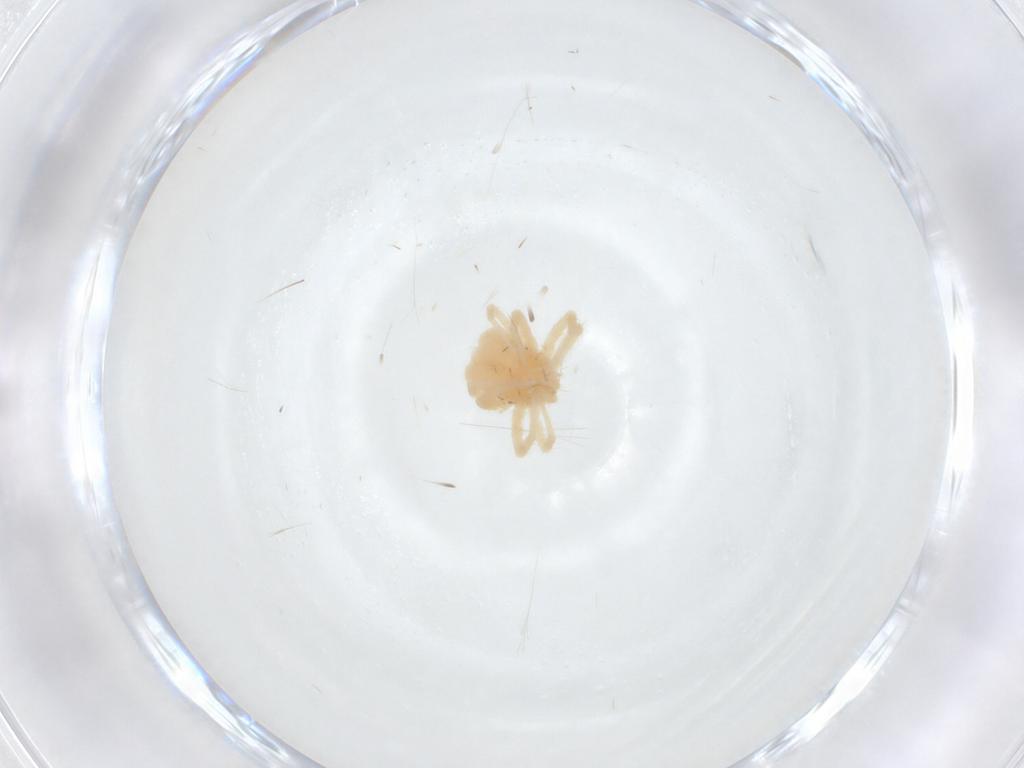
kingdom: Animalia
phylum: Arthropoda
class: Arachnida
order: Trombidiformes
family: Anystidae
